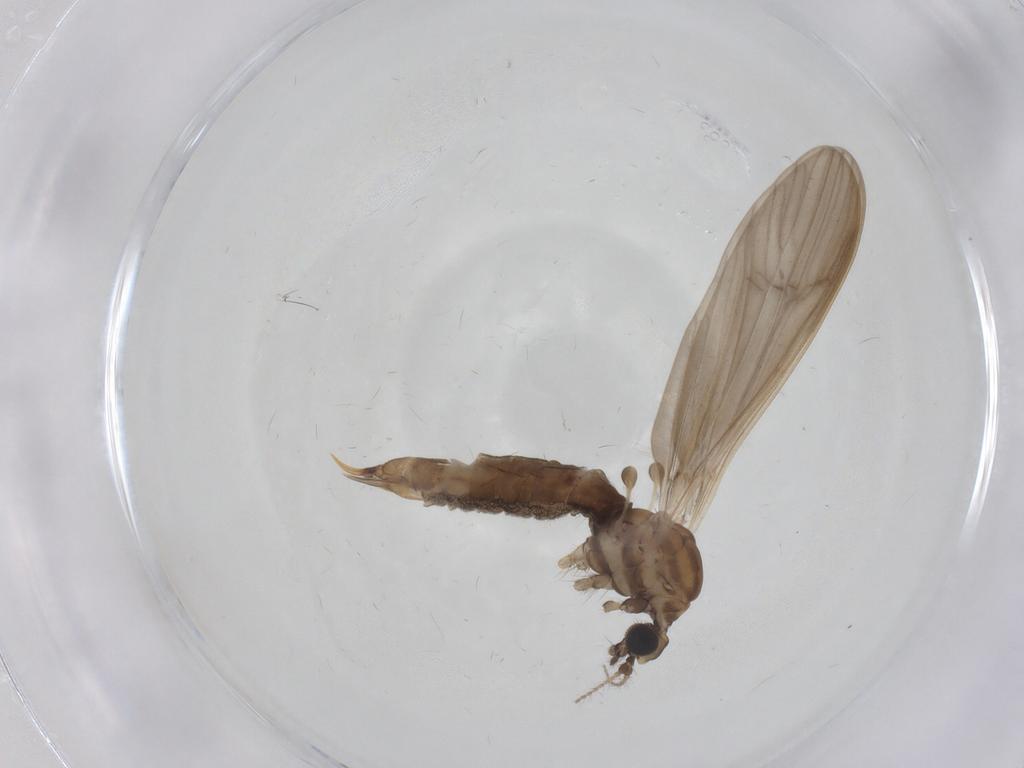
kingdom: Animalia
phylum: Arthropoda
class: Insecta
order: Diptera
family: Limoniidae
